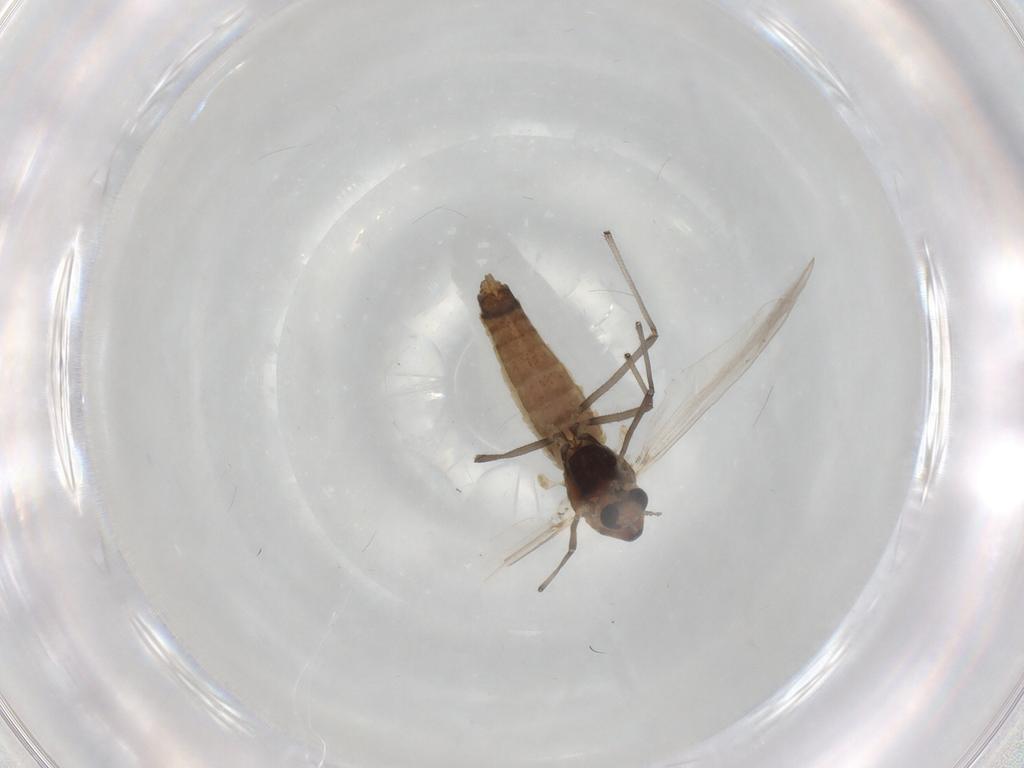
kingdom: Animalia
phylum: Arthropoda
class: Insecta
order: Diptera
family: Chironomidae
